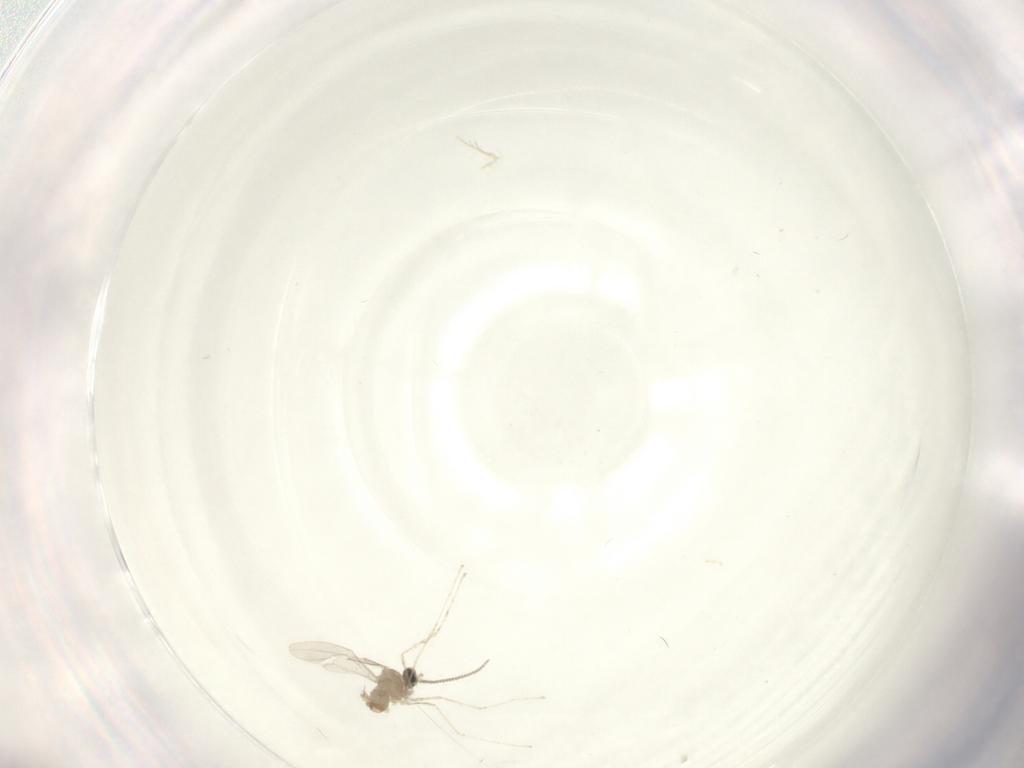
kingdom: Animalia
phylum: Arthropoda
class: Insecta
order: Diptera
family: Cecidomyiidae
